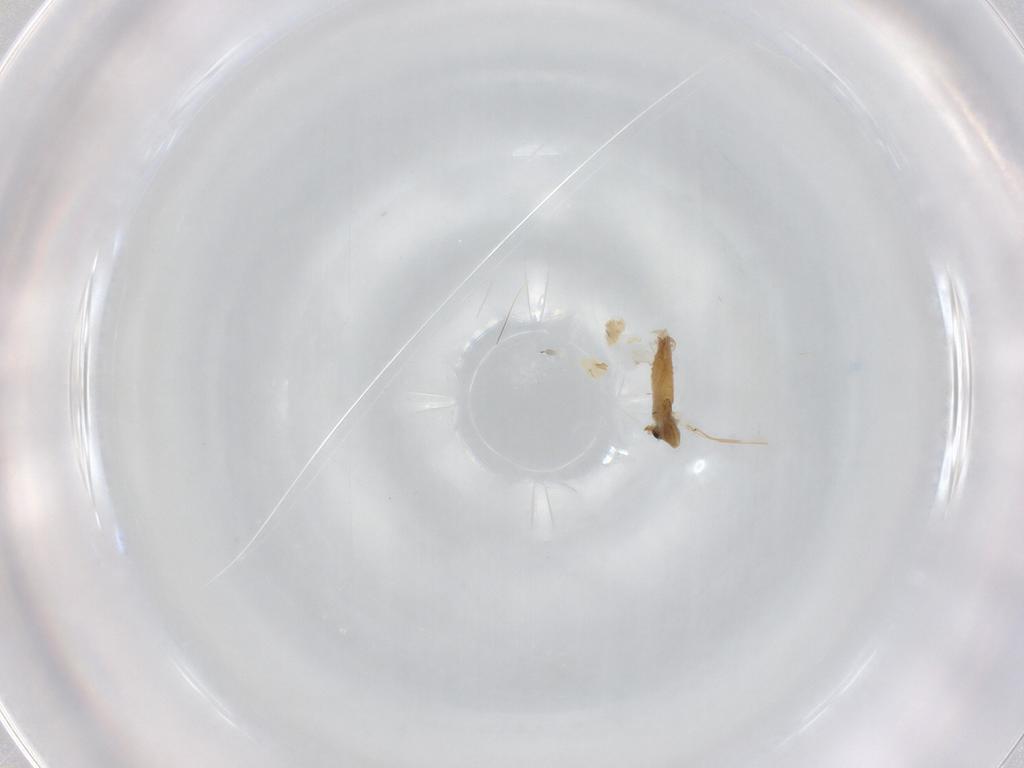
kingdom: Animalia
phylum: Arthropoda
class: Insecta
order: Diptera
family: Glossinidae
